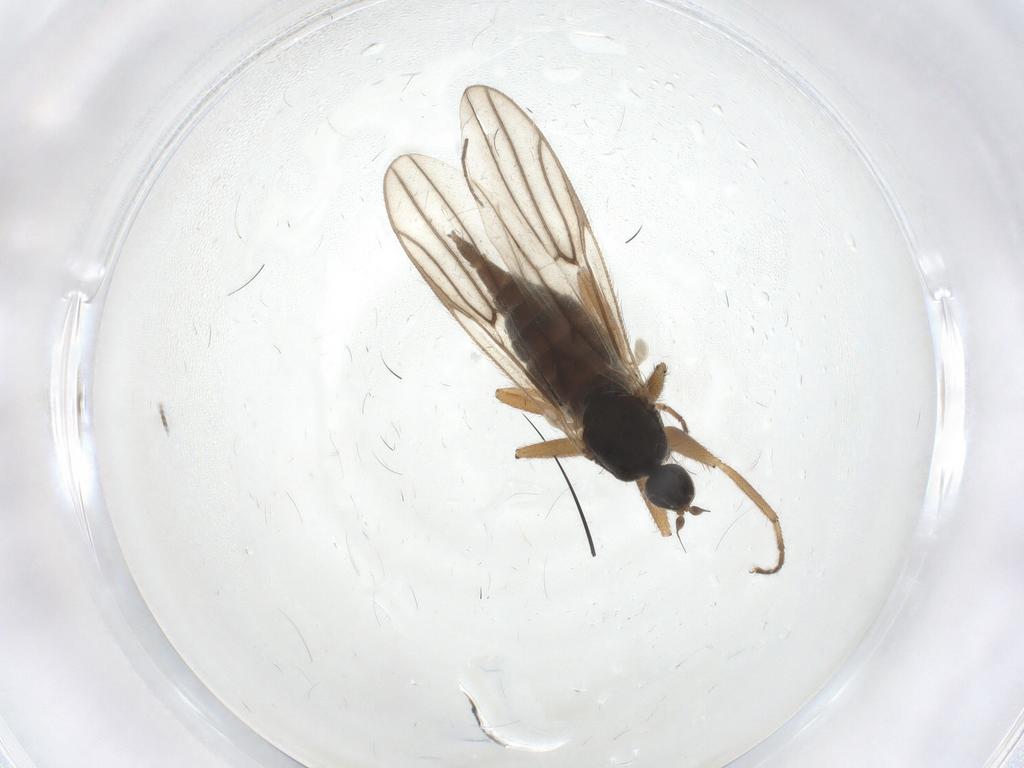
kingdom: Animalia
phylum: Arthropoda
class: Insecta
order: Diptera
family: Hybotidae
